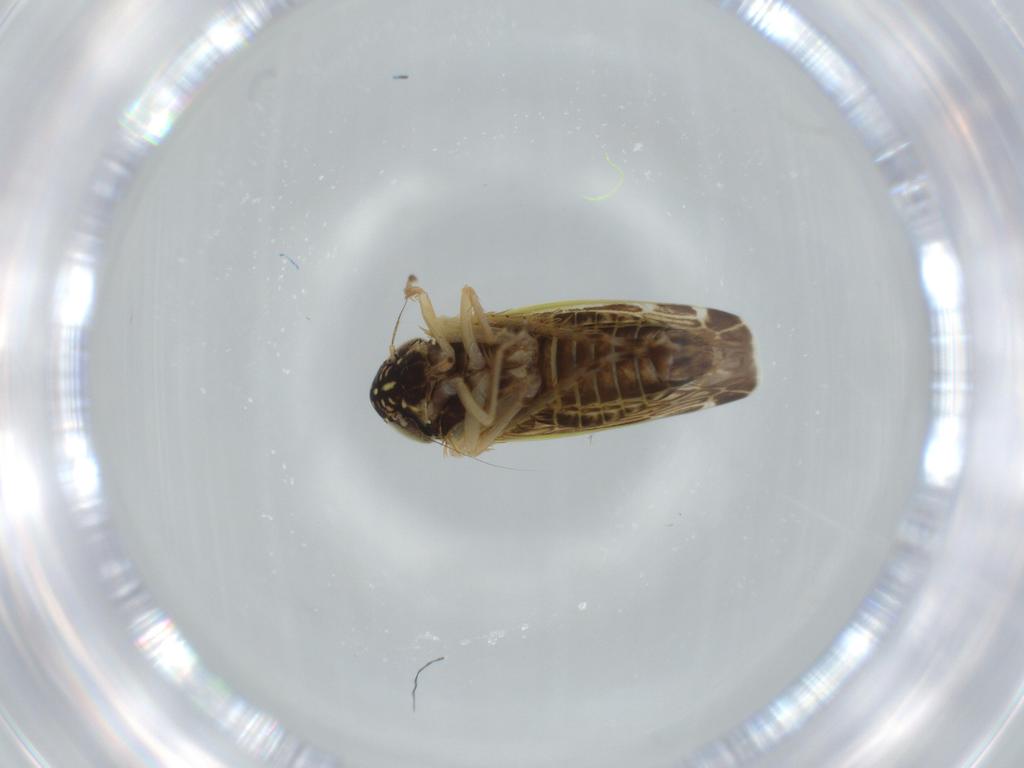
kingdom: Animalia
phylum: Arthropoda
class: Insecta
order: Hemiptera
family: Cicadellidae
